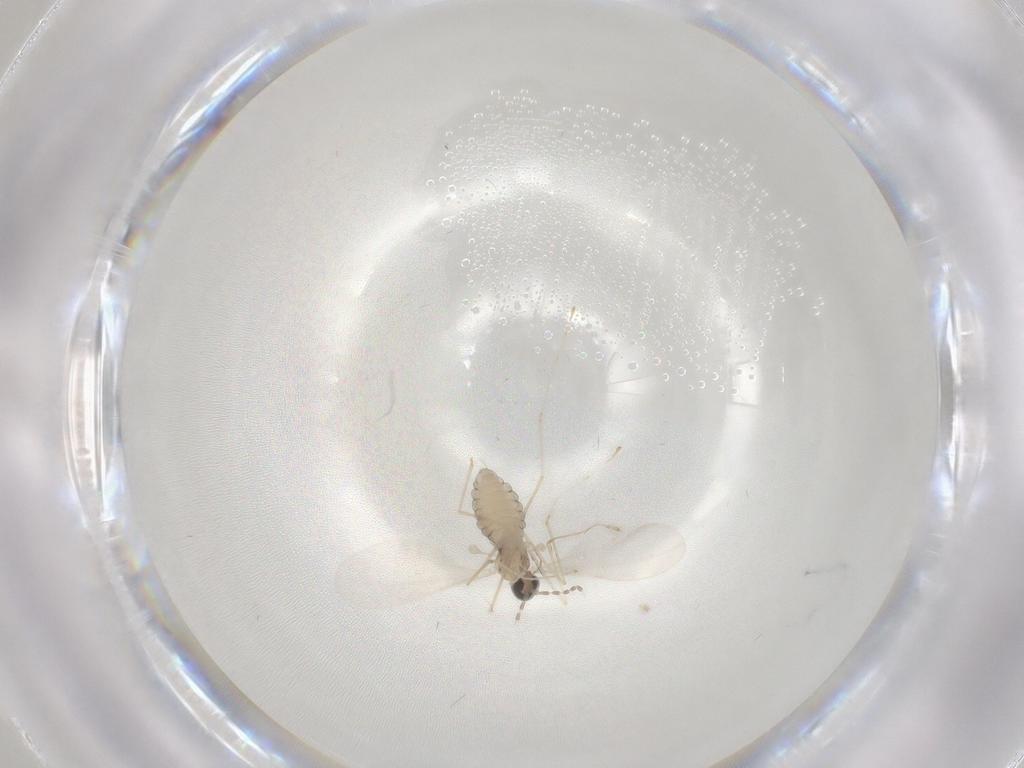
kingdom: Animalia
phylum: Arthropoda
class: Insecta
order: Diptera
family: Cecidomyiidae
